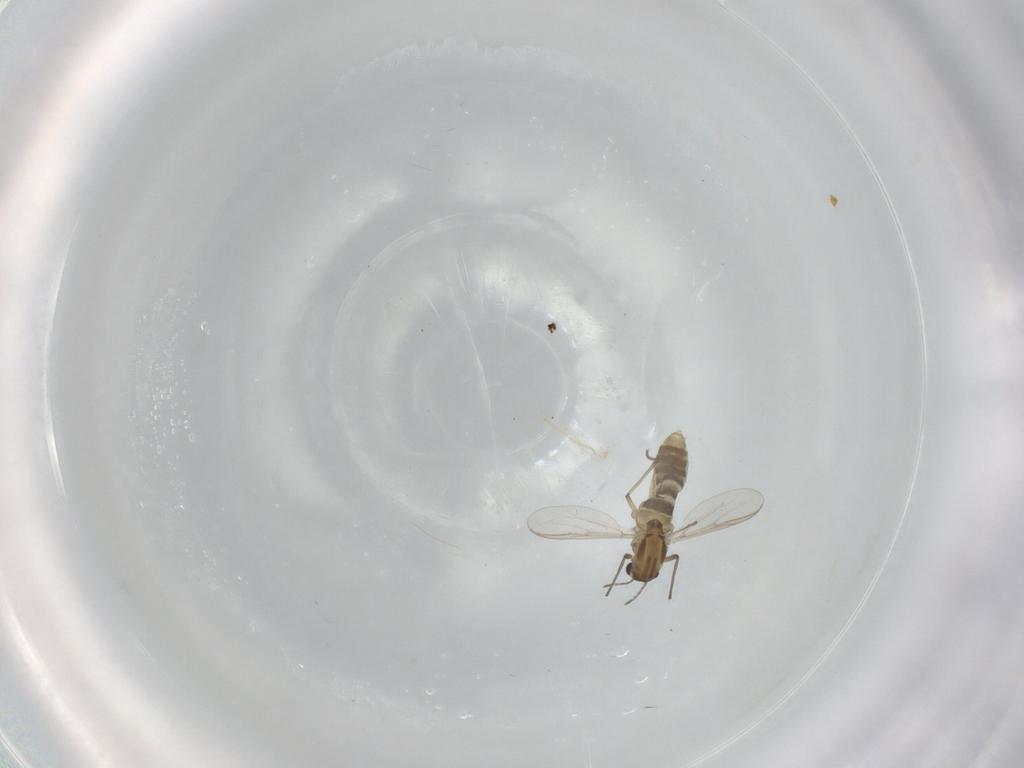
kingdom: Animalia
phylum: Arthropoda
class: Insecta
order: Diptera
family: Chironomidae
